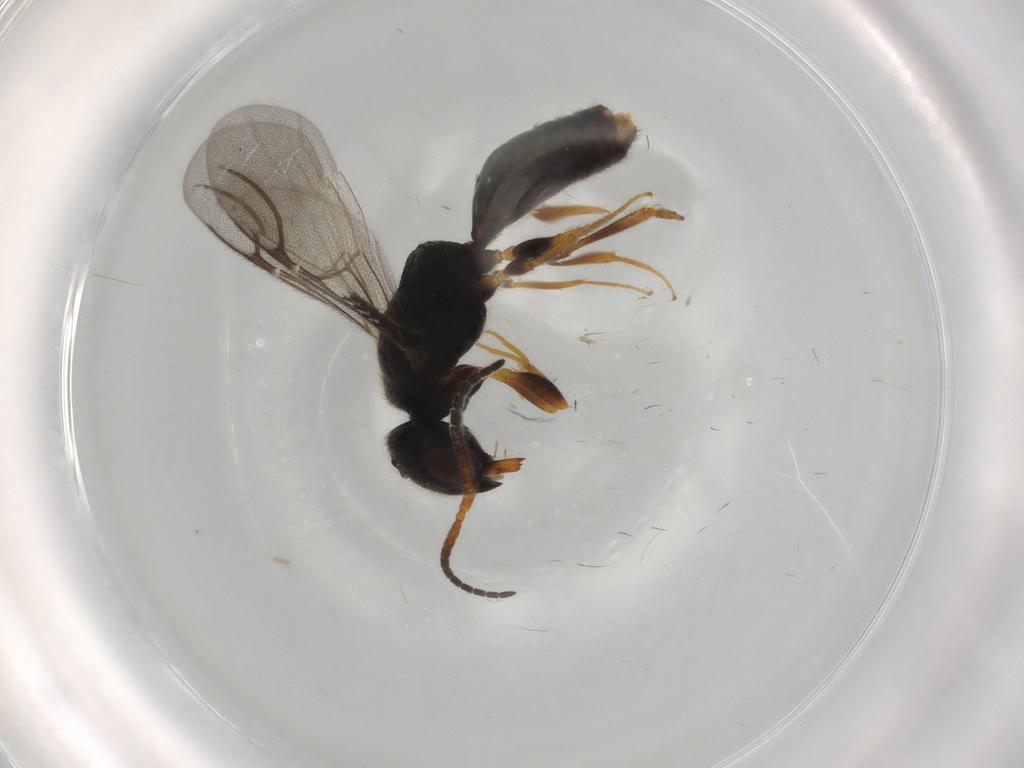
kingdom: Animalia
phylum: Arthropoda
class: Insecta
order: Hymenoptera
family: Bethylidae
